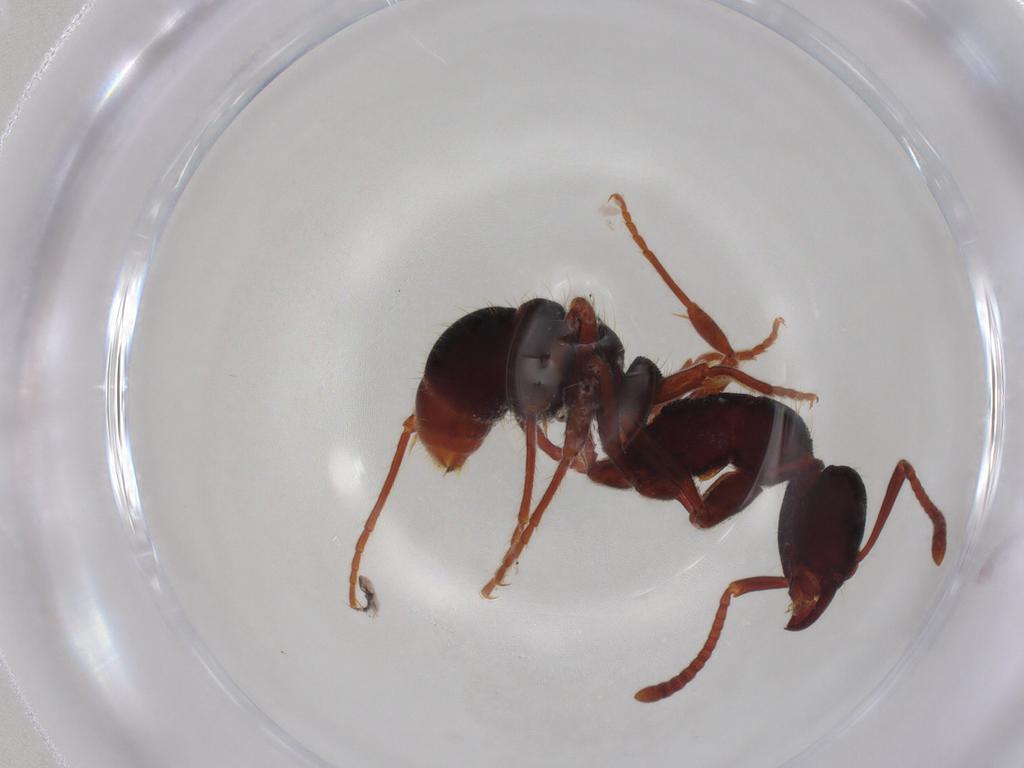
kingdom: Animalia
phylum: Arthropoda
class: Insecta
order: Hymenoptera
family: Formicidae
